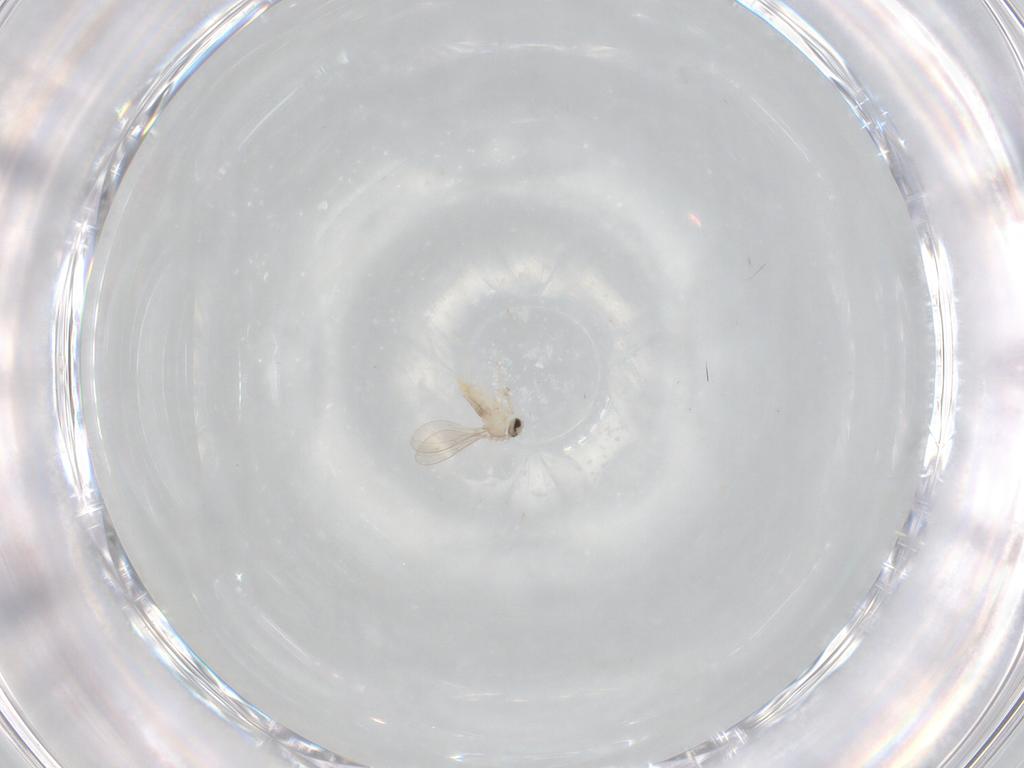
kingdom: Animalia
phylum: Arthropoda
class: Insecta
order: Diptera
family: Cecidomyiidae
